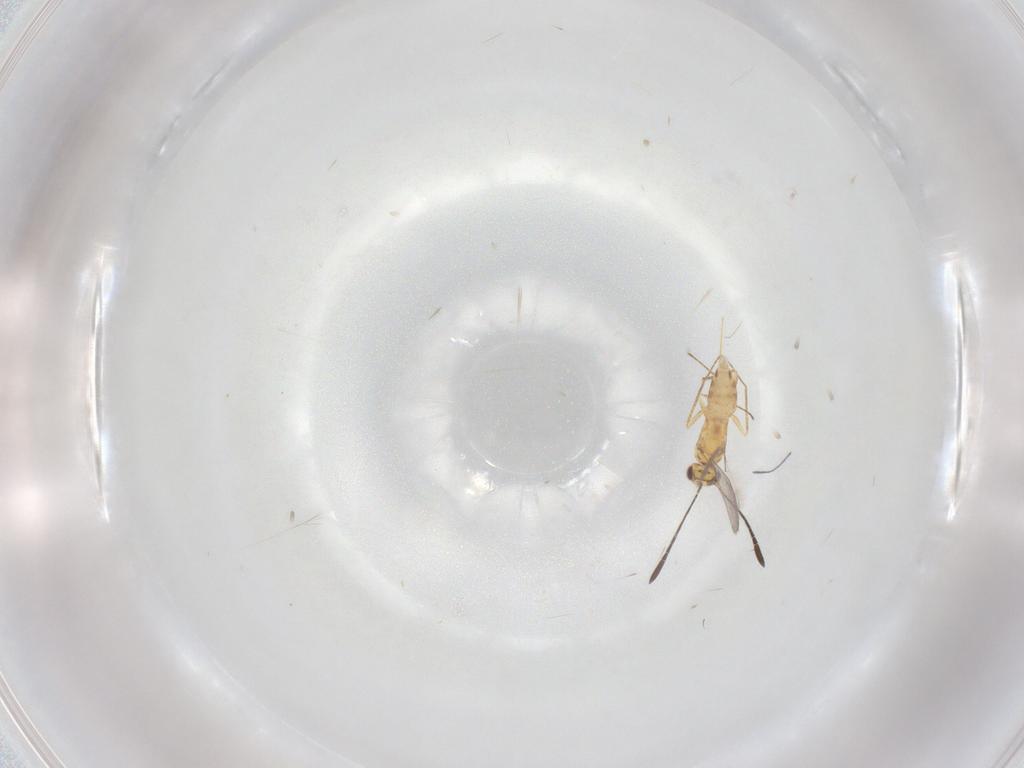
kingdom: Animalia
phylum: Arthropoda
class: Insecta
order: Hymenoptera
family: Mymaridae
